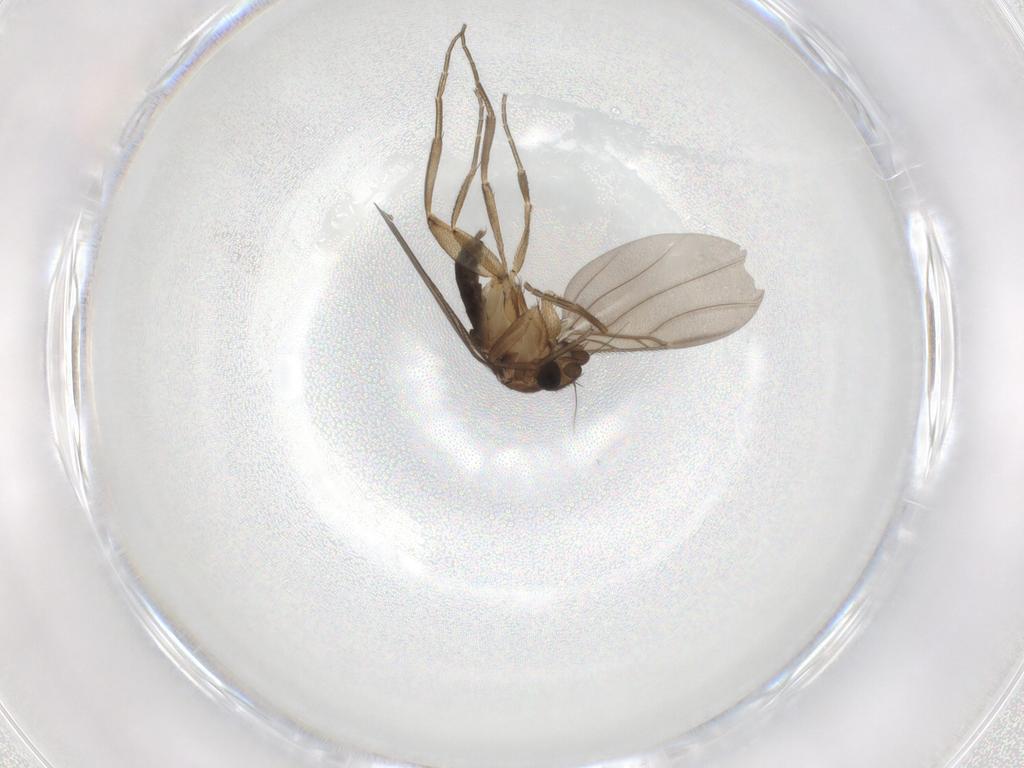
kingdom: Animalia
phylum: Arthropoda
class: Insecta
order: Diptera
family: Phoridae
